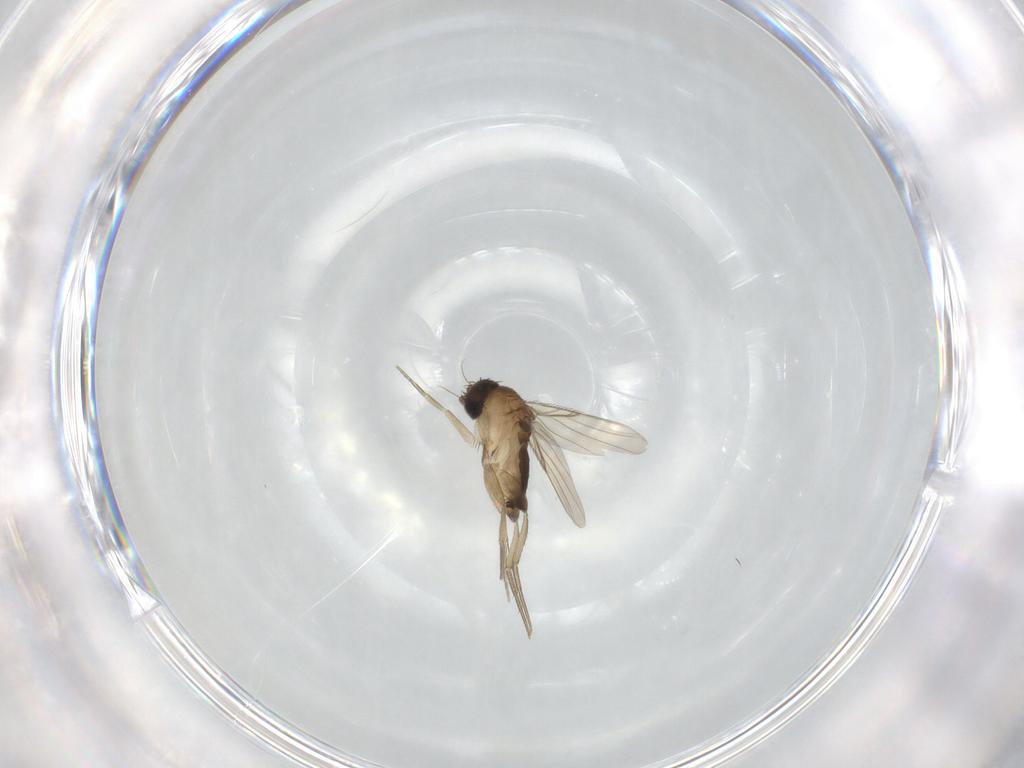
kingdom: Animalia
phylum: Arthropoda
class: Insecta
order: Diptera
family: Phoridae
